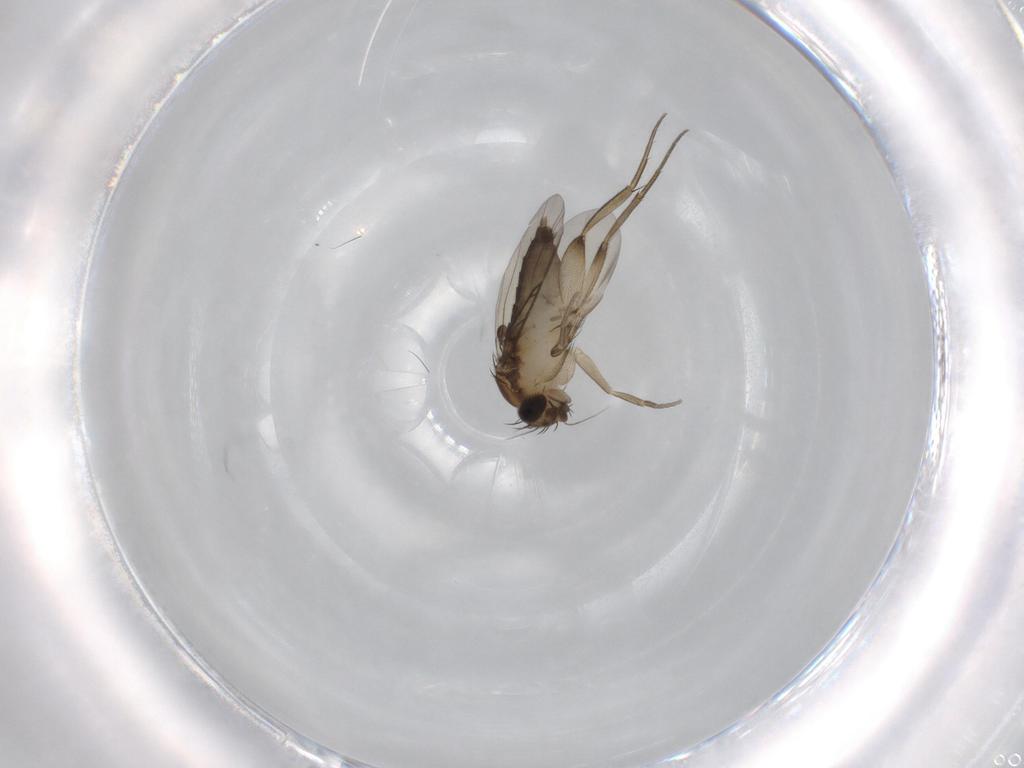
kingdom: Animalia
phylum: Arthropoda
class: Insecta
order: Diptera
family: Phoridae
